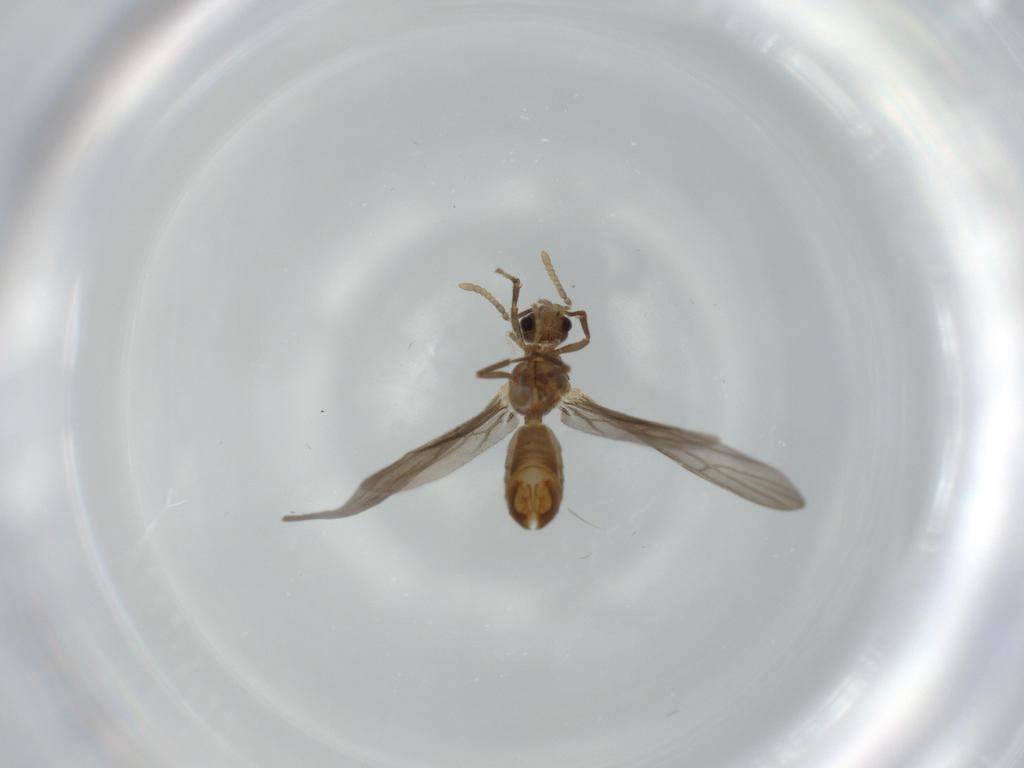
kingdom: Animalia
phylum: Arthropoda
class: Insecta
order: Hymenoptera
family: Formicidae
